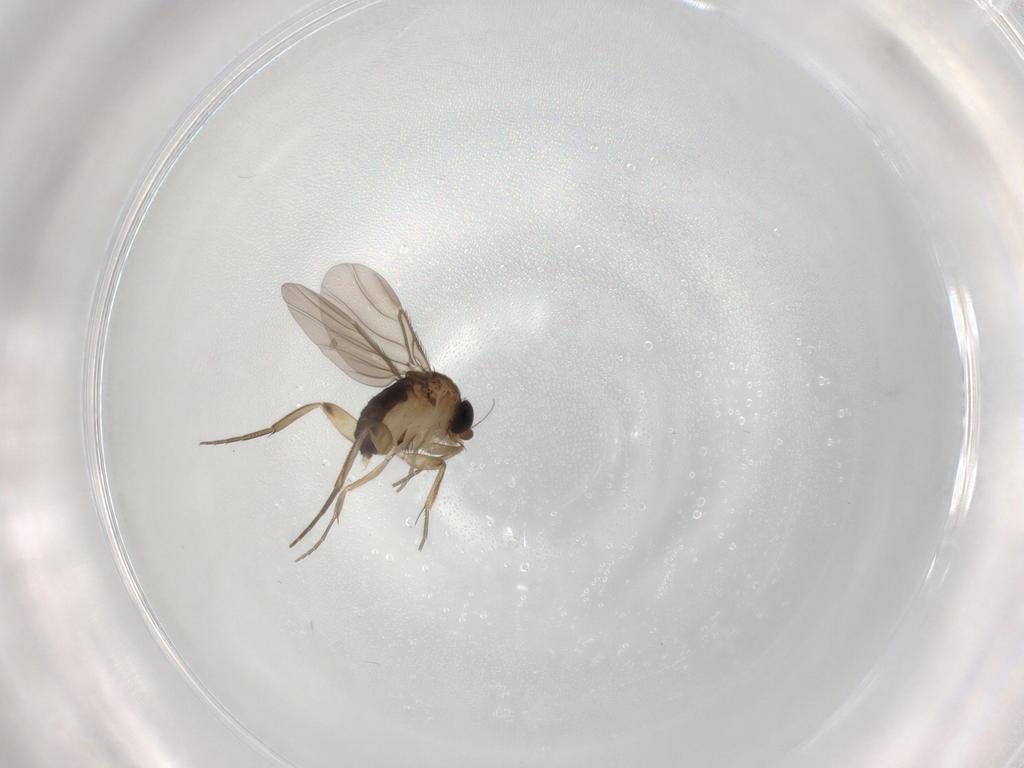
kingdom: Animalia
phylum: Arthropoda
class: Insecta
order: Diptera
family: Phoridae
